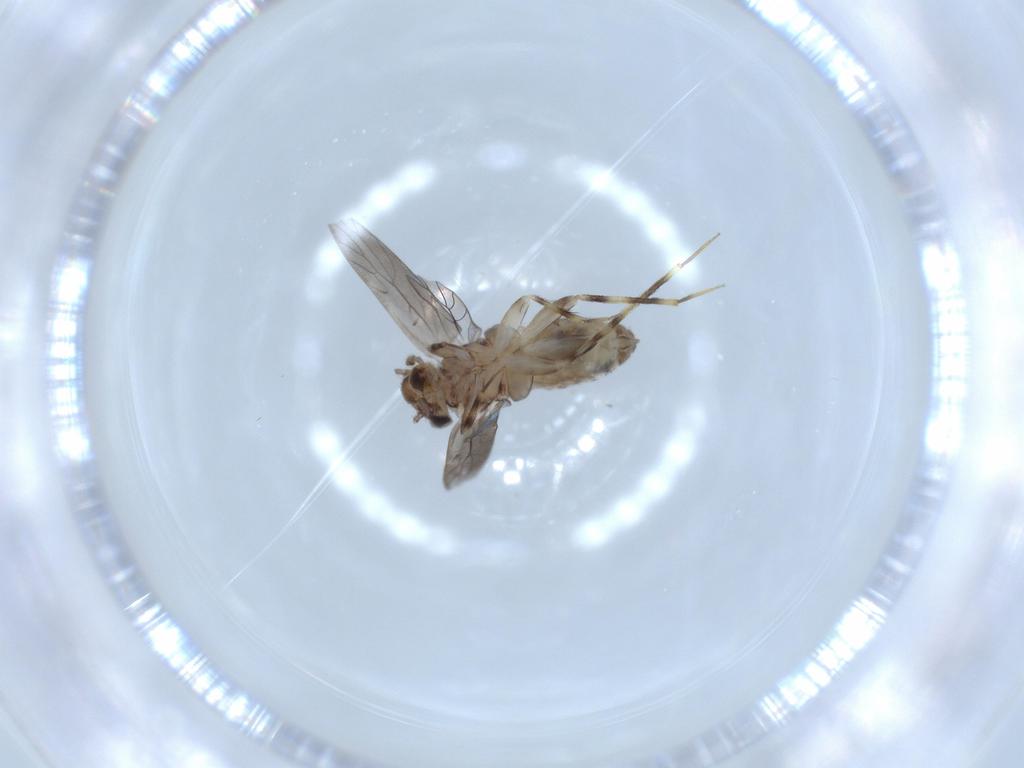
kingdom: Animalia
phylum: Arthropoda
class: Insecta
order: Psocodea
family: Lepidopsocidae
